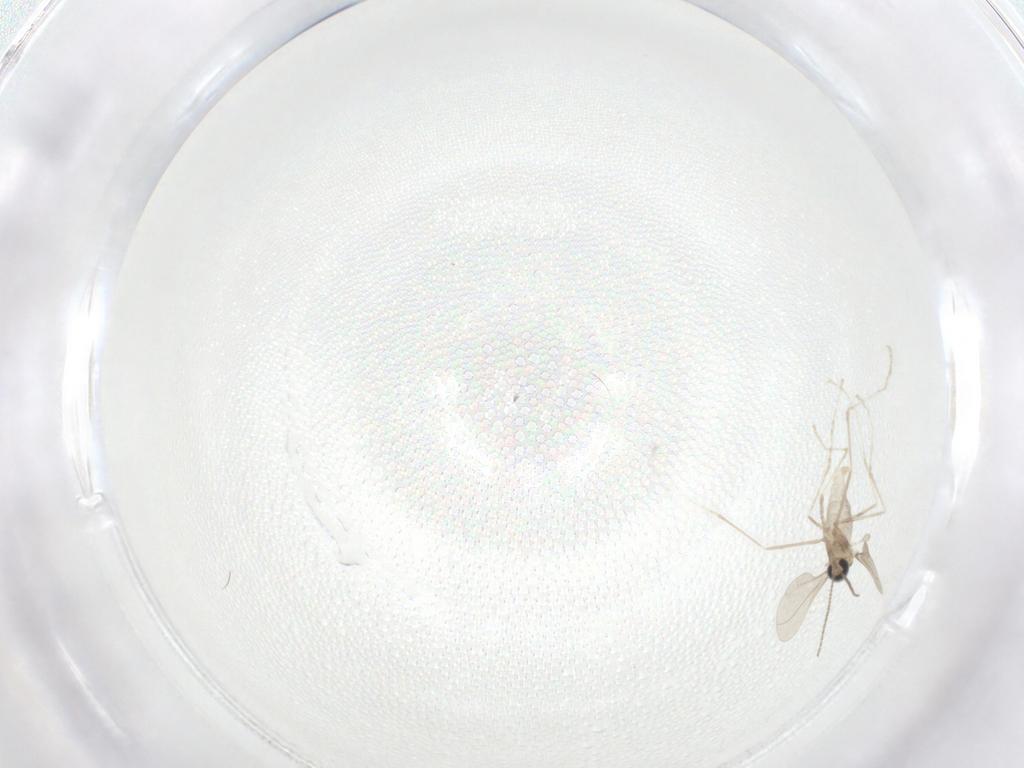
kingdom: Animalia
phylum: Arthropoda
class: Insecta
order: Diptera
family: Cecidomyiidae
